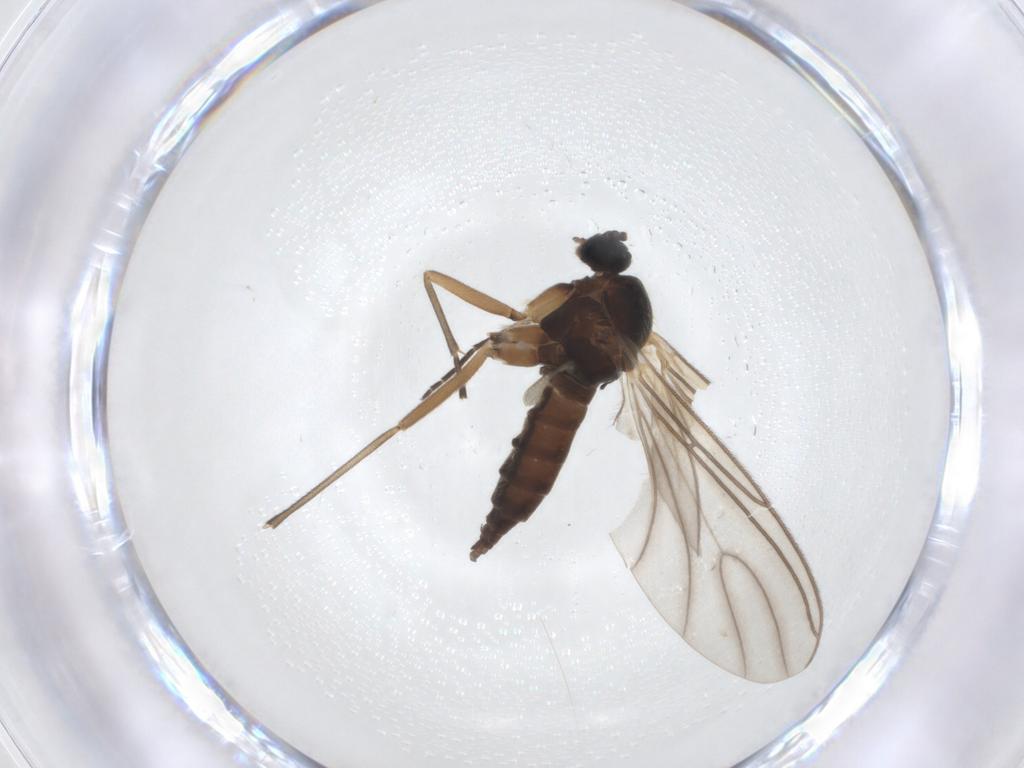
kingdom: Animalia
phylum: Arthropoda
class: Insecta
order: Diptera
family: Sciaridae
